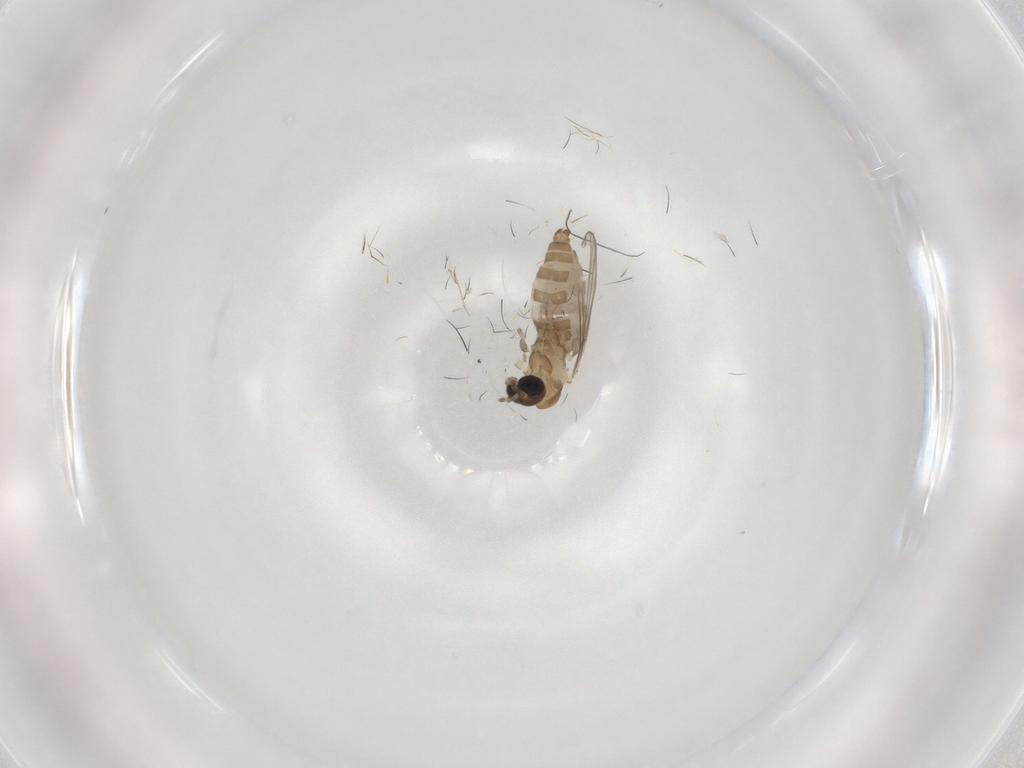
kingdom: Animalia
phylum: Arthropoda
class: Insecta
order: Diptera
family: Cecidomyiidae
